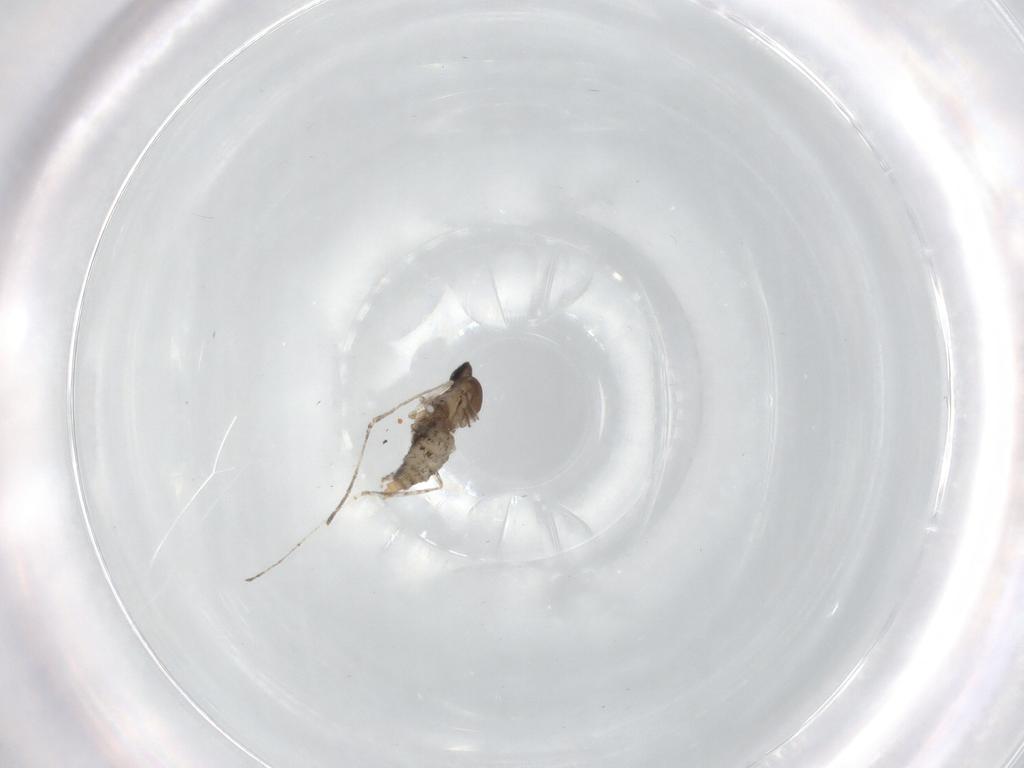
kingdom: Animalia
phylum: Arthropoda
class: Insecta
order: Diptera
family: Cecidomyiidae
